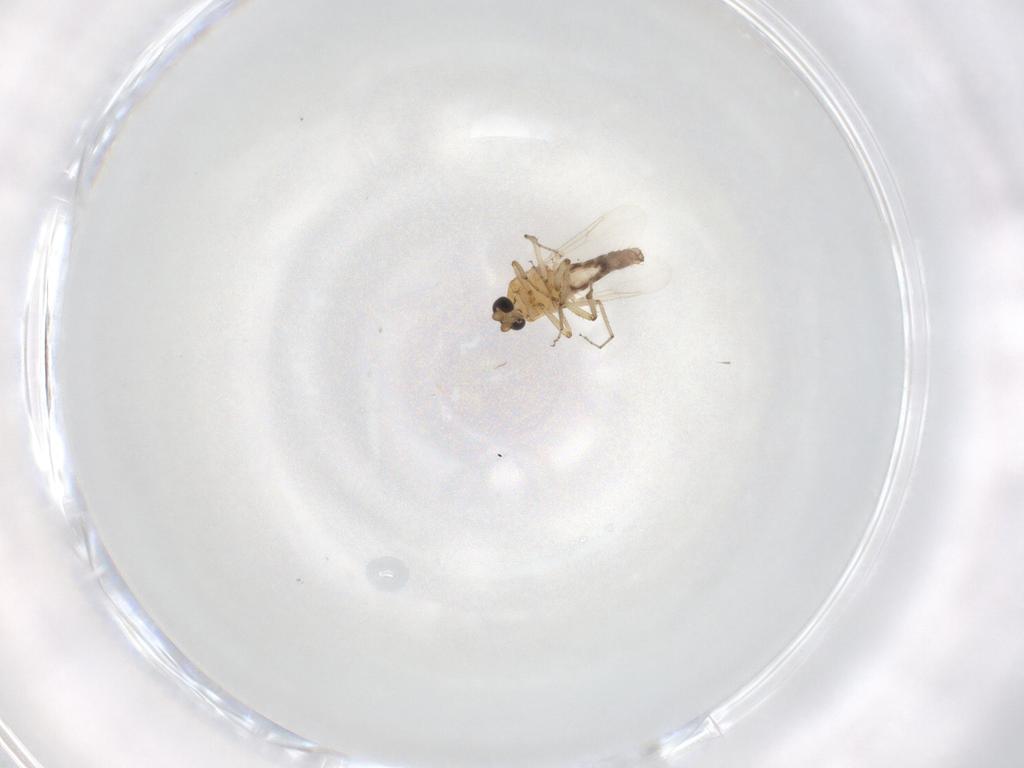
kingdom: Animalia
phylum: Arthropoda
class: Insecta
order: Diptera
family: Ceratopogonidae
